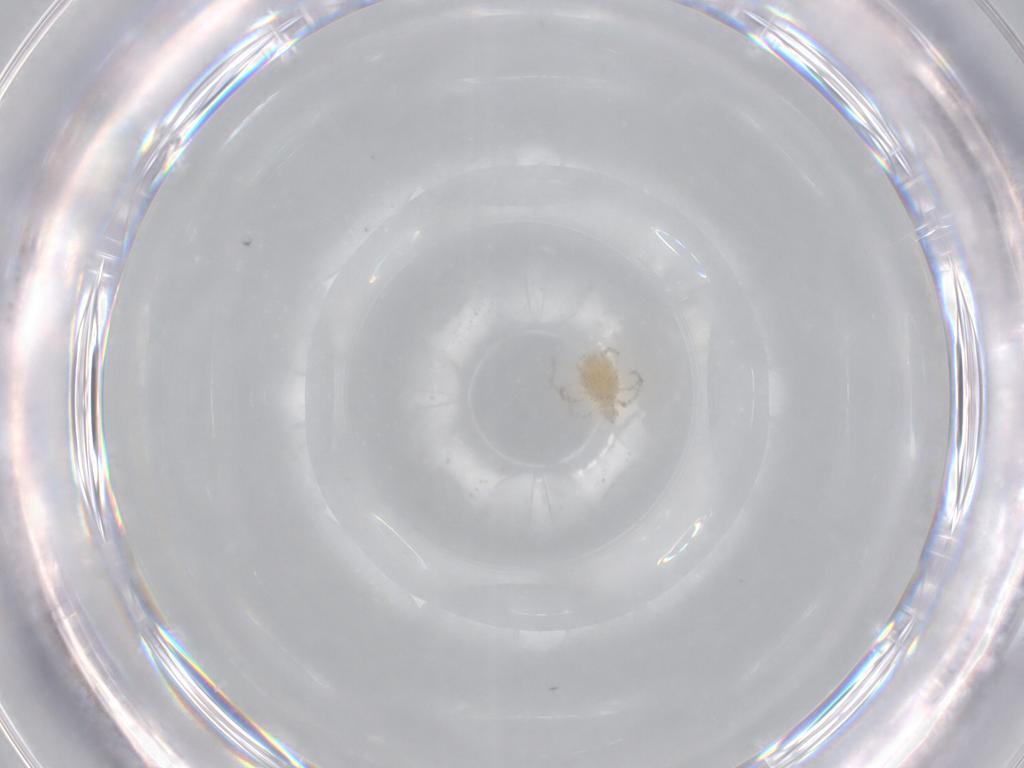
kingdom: Animalia
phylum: Arthropoda
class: Arachnida
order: Trombidiformes
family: Erythraeidae
